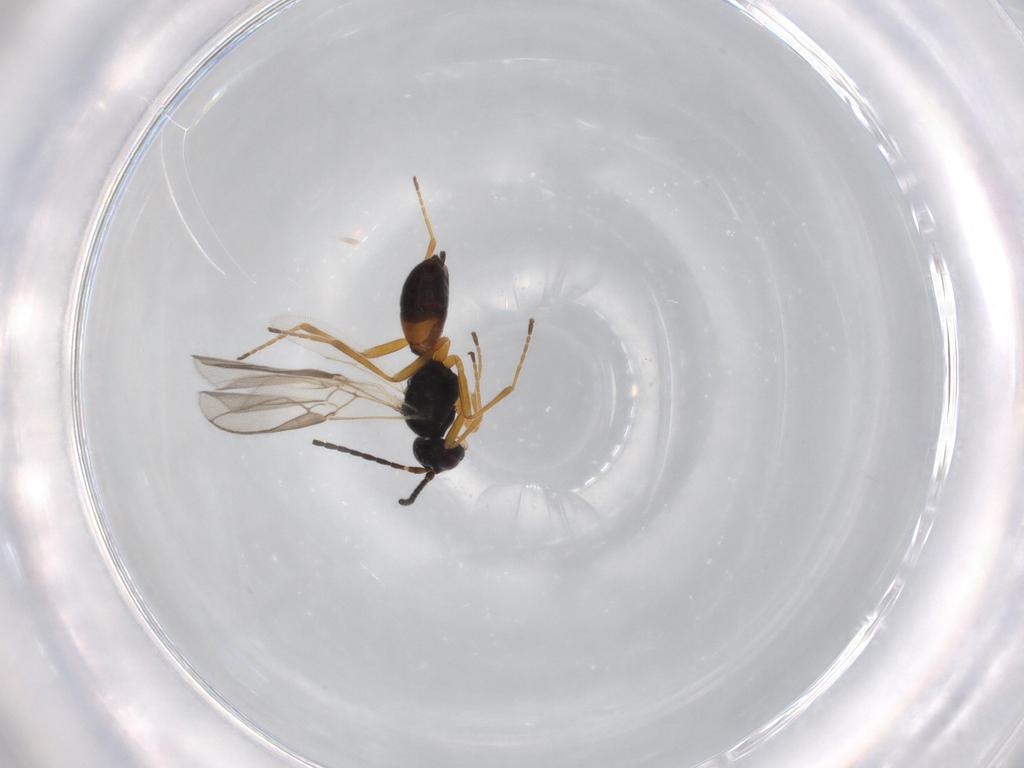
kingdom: Animalia
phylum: Arthropoda
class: Insecta
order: Hymenoptera
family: Braconidae
